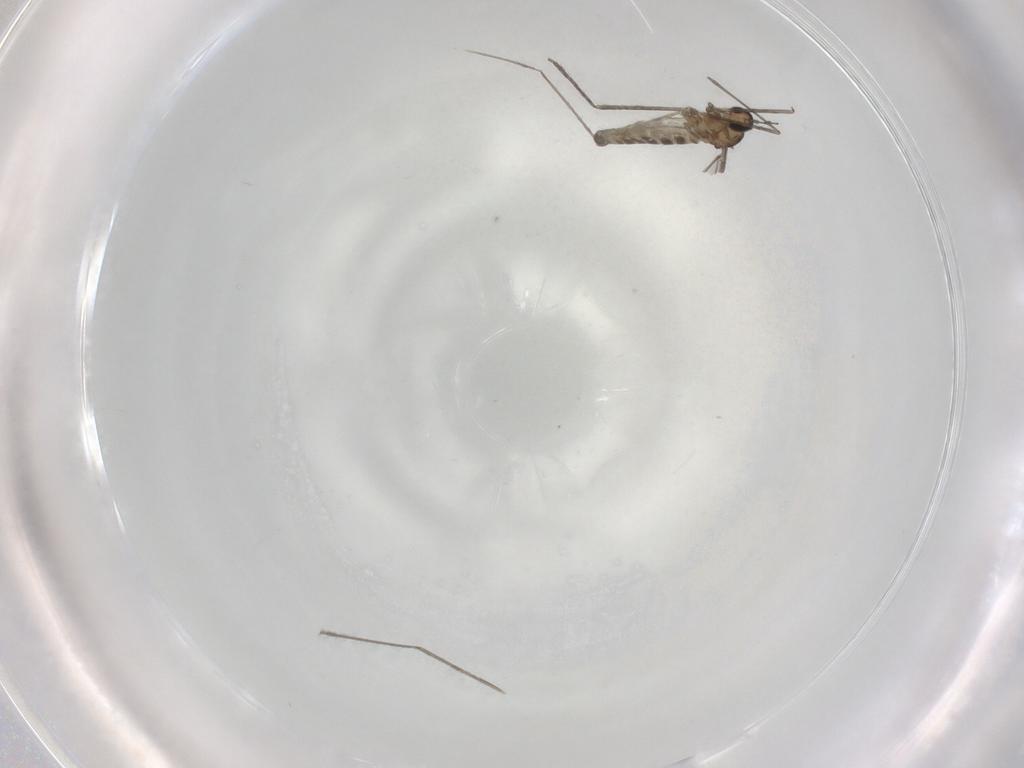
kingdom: Animalia
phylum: Arthropoda
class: Insecta
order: Diptera
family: Cecidomyiidae
